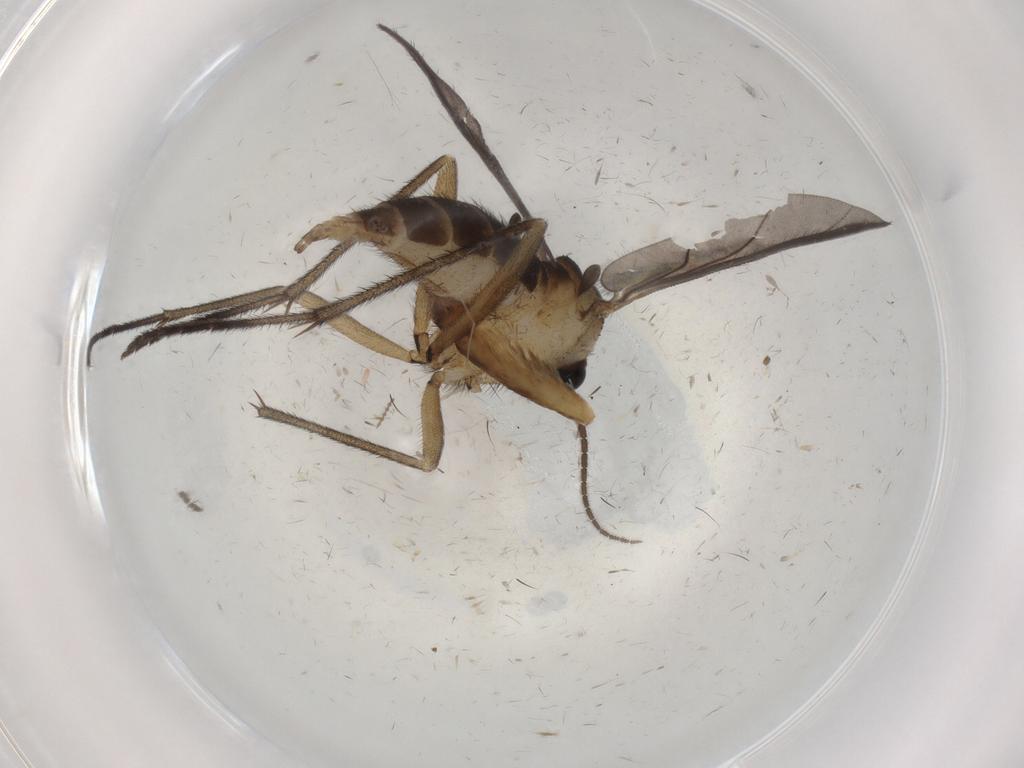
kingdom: Animalia
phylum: Arthropoda
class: Insecta
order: Diptera
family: Sciaridae
